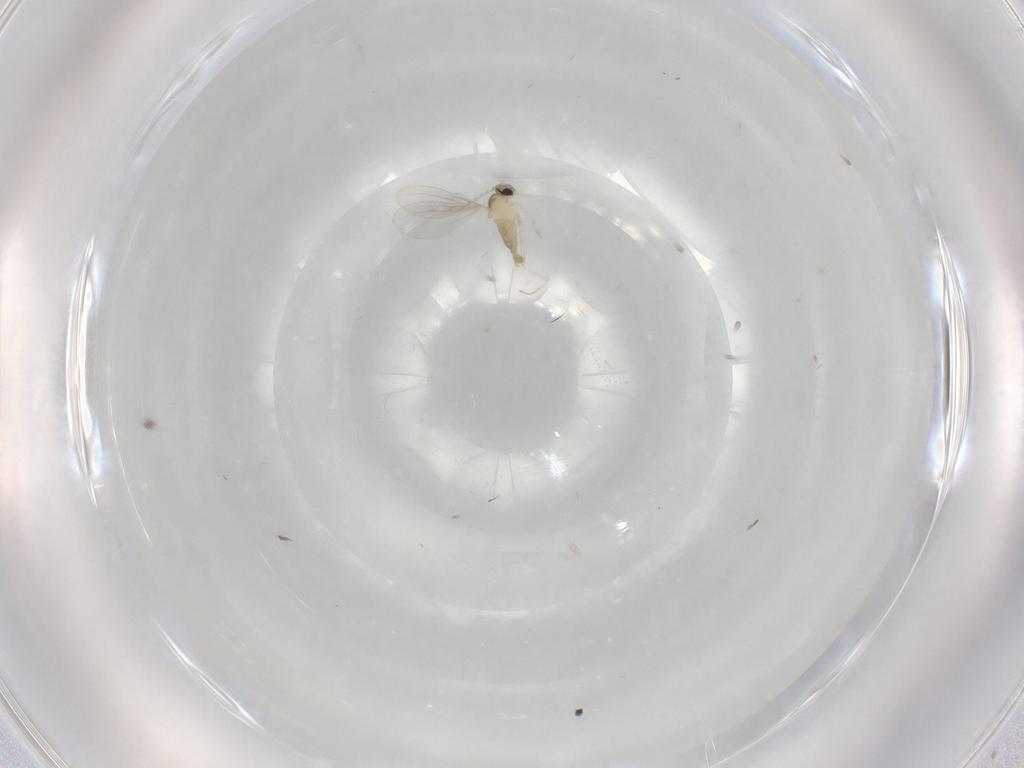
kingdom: Animalia
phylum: Arthropoda
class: Insecta
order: Diptera
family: Cecidomyiidae
